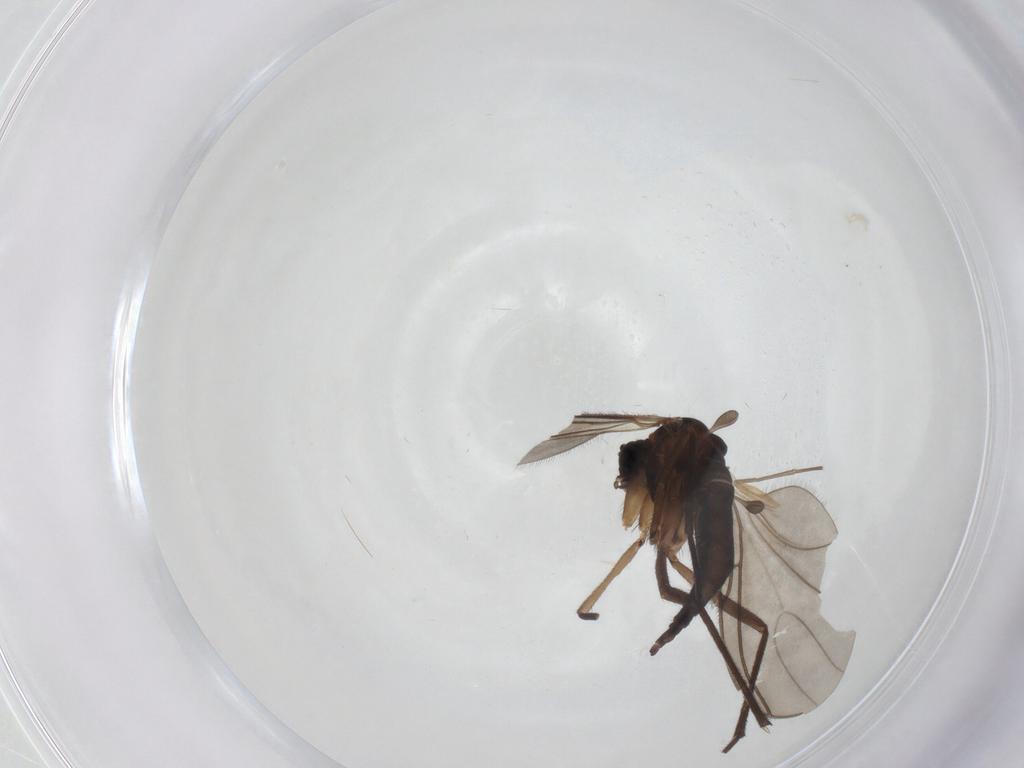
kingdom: Animalia
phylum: Arthropoda
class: Insecta
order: Diptera
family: Sciaridae
